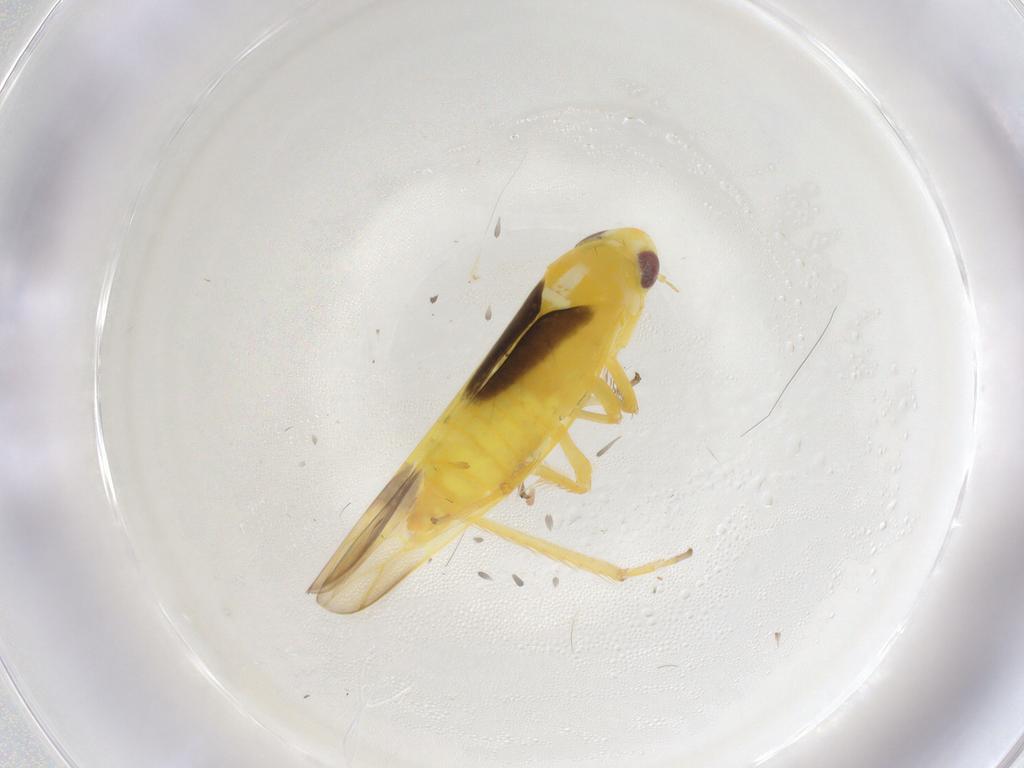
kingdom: Animalia
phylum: Arthropoda
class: Insecta
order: Hemiptera
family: Cicadellidae
